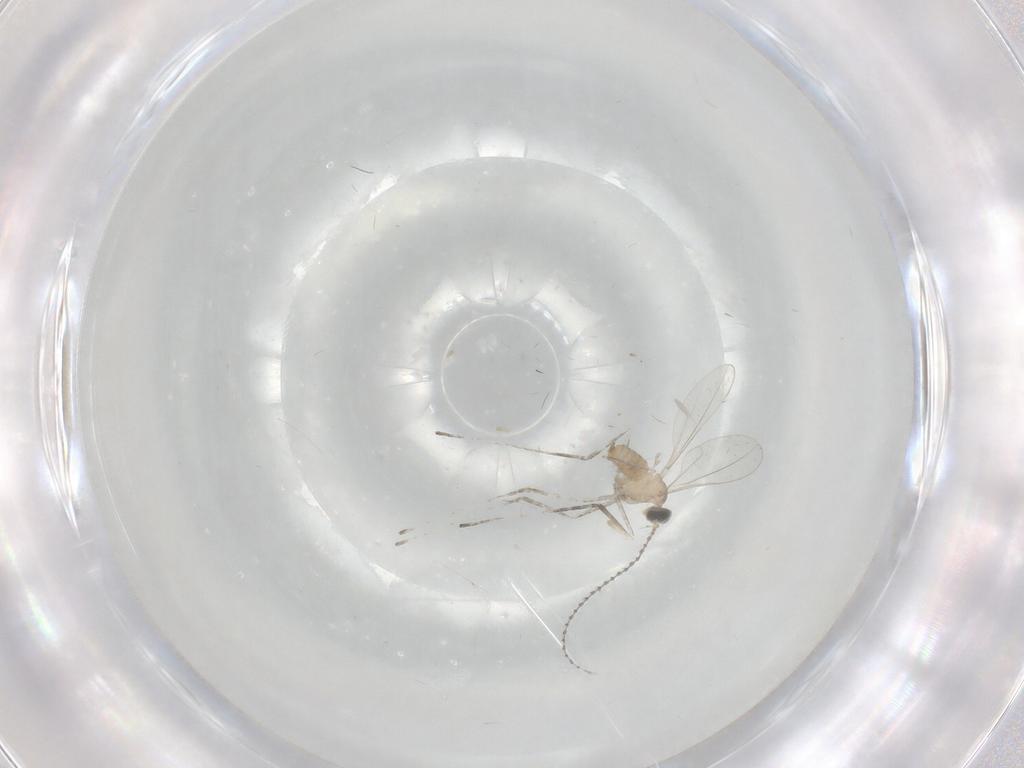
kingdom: Animalia
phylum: Arthropoda
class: Insecta
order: Diptera
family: Cecidomyiidae
